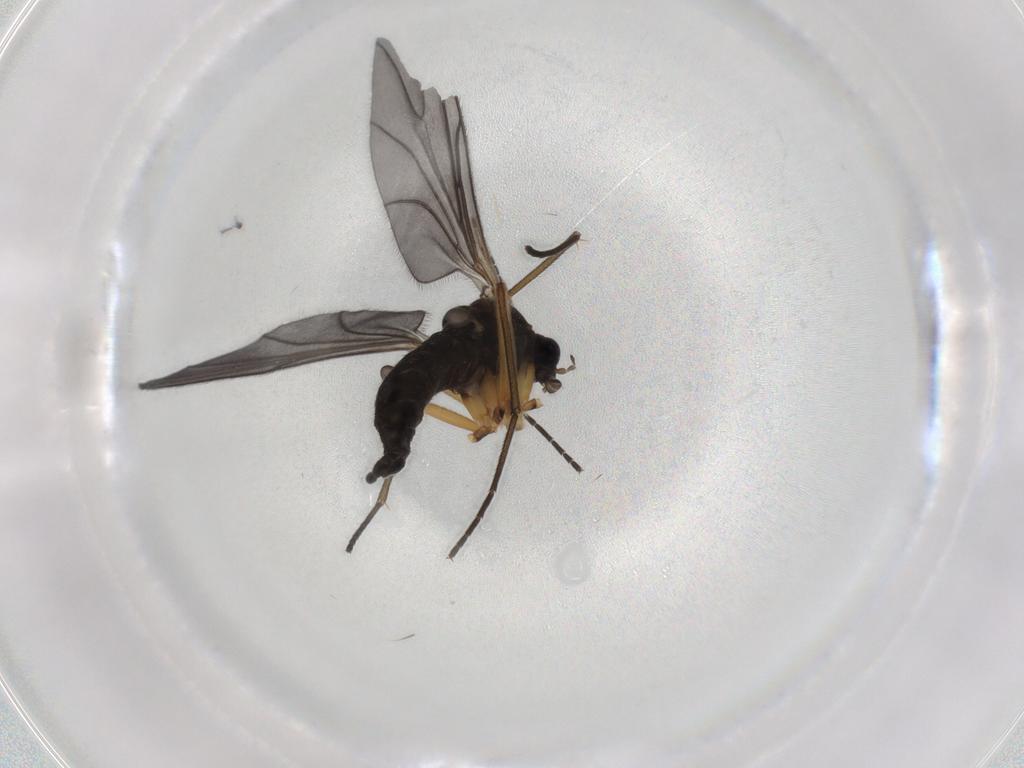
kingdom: Animalia
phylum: Arthropoda
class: Insecta
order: Diptera
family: Sciaridae
